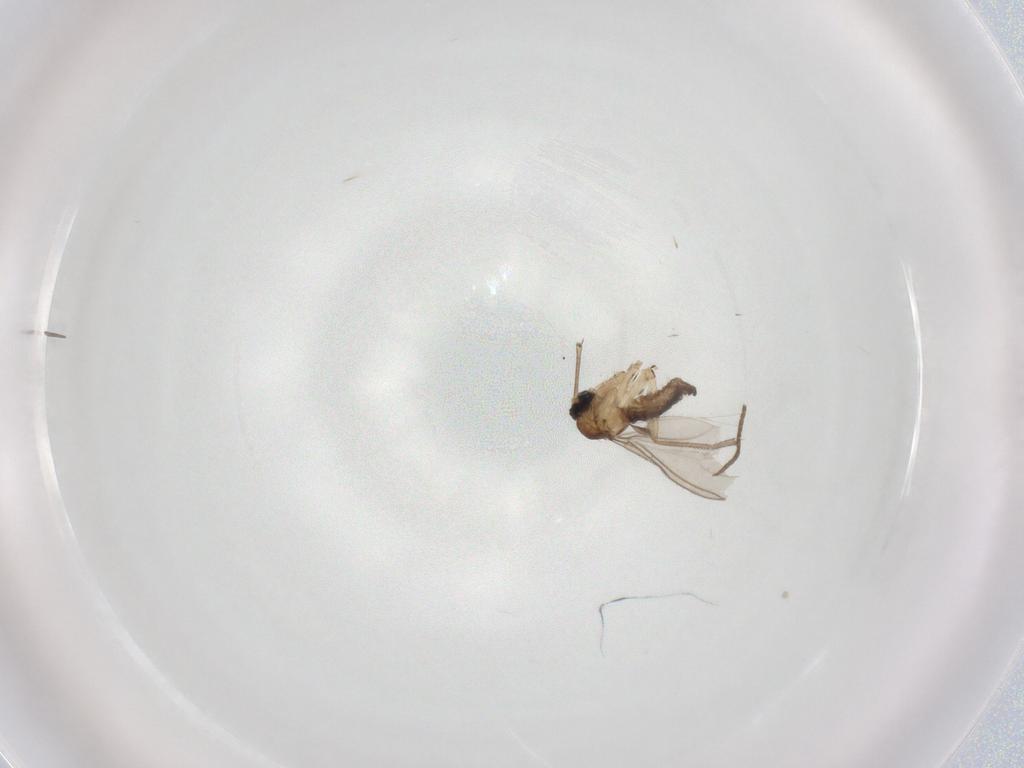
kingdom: Animalia
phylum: Arthropoda
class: Insecta
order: Diptera
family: Sciaridae
